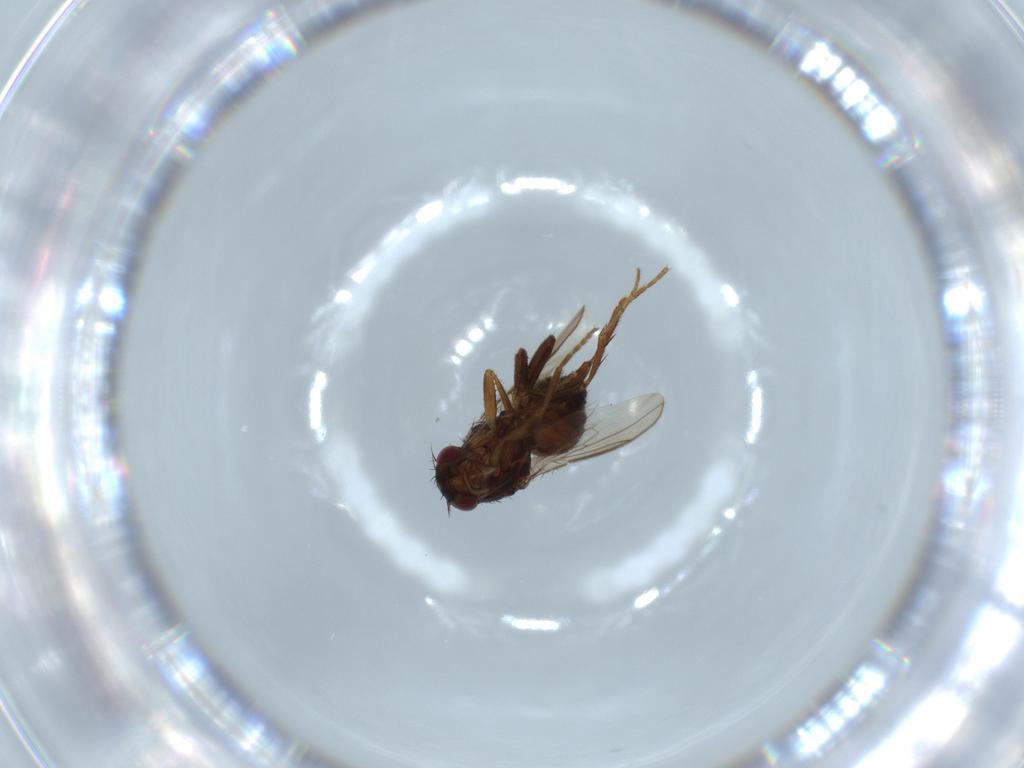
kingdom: Animalia
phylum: Arthropoda
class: Insecta
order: Diptera
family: Sphaeroceridae
